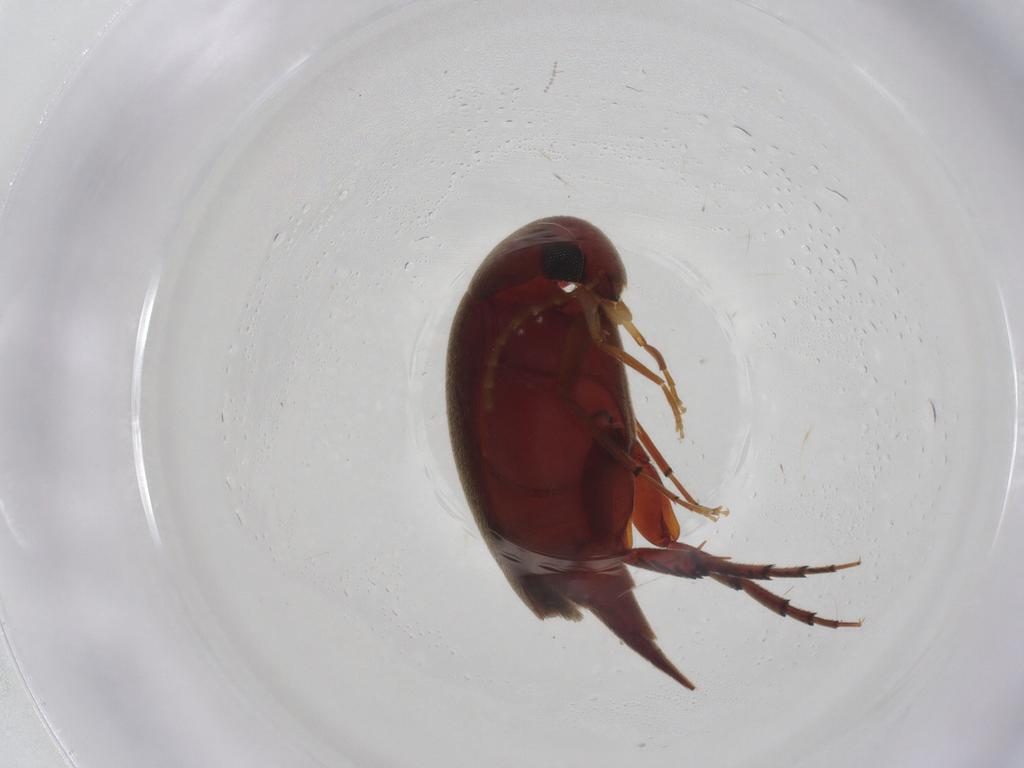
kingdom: Animalia
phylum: Arthropoda
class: Insecta
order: Coleoptera
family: Mordellidae
